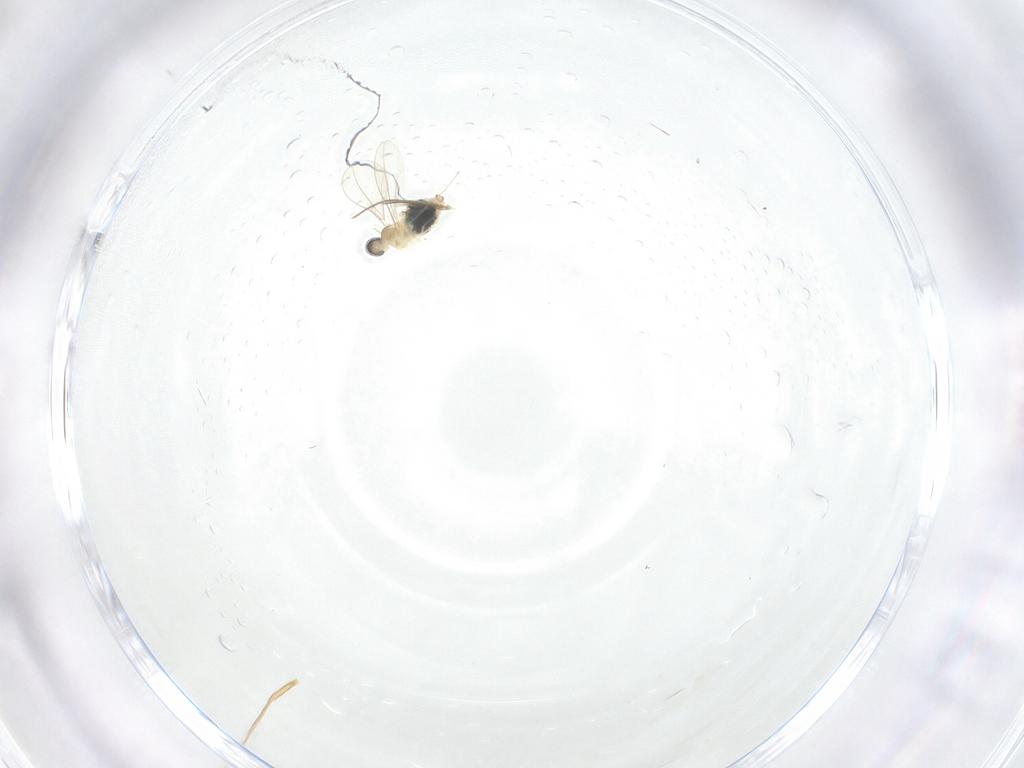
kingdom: Animalia
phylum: Arthropoda
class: Insecta
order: Diptera
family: Cecidomyiidae
